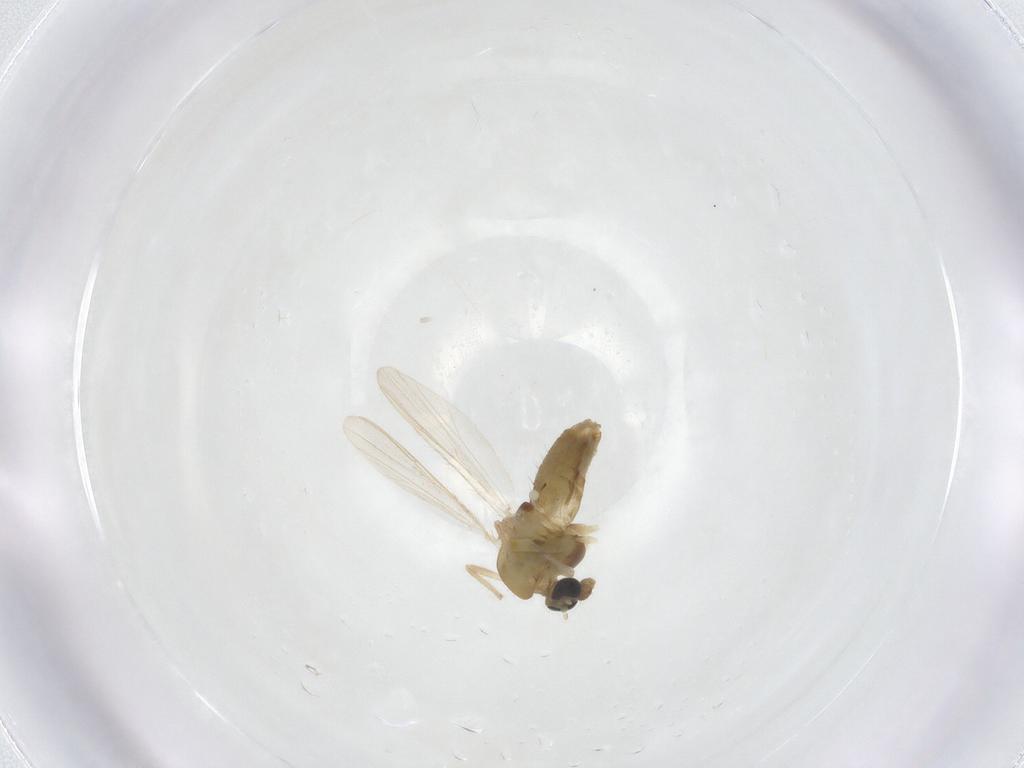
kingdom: Animalia
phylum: Arthropoda
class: Insecta
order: Diptera
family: Chironomidae
